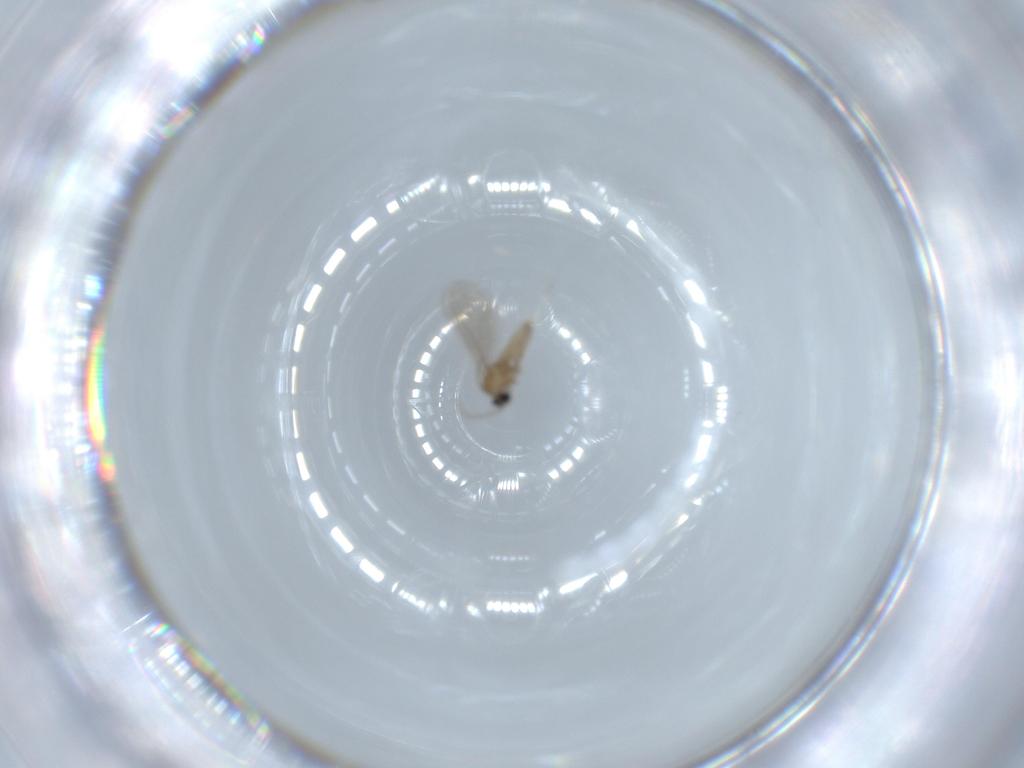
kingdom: Animalia
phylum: Arthropoda
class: Insecta
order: Diptera
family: Cecidomyiidae
